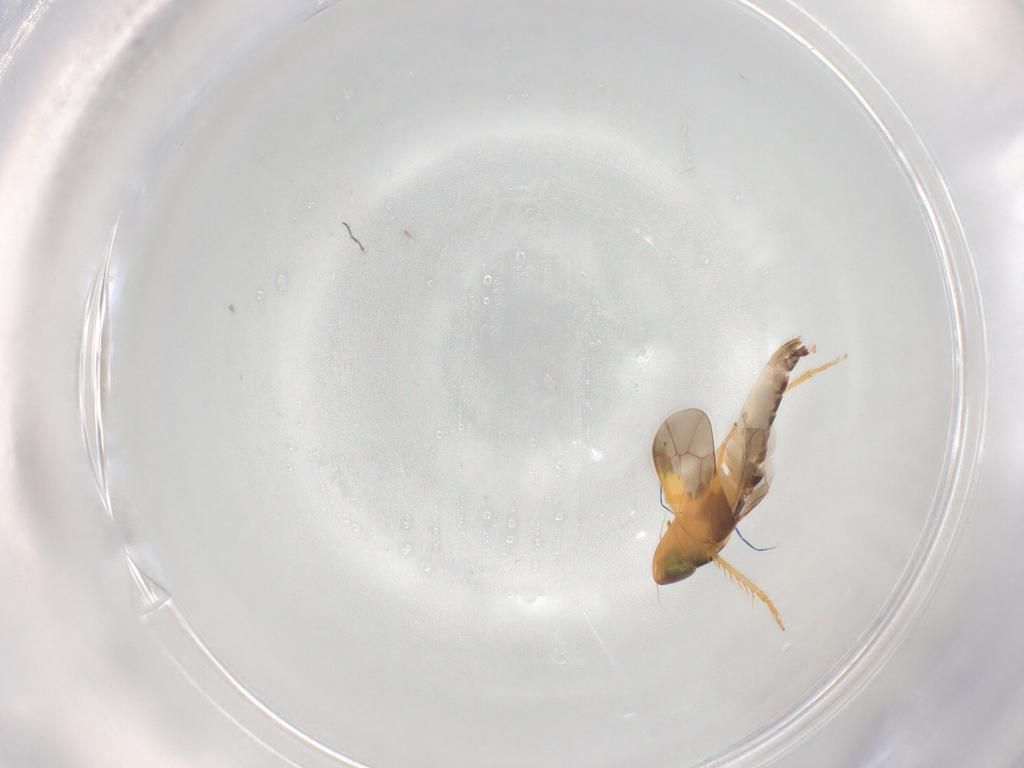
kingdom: Animalia
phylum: Arthropoda
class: Insecta
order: Hemiptera
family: Cicadellidae
